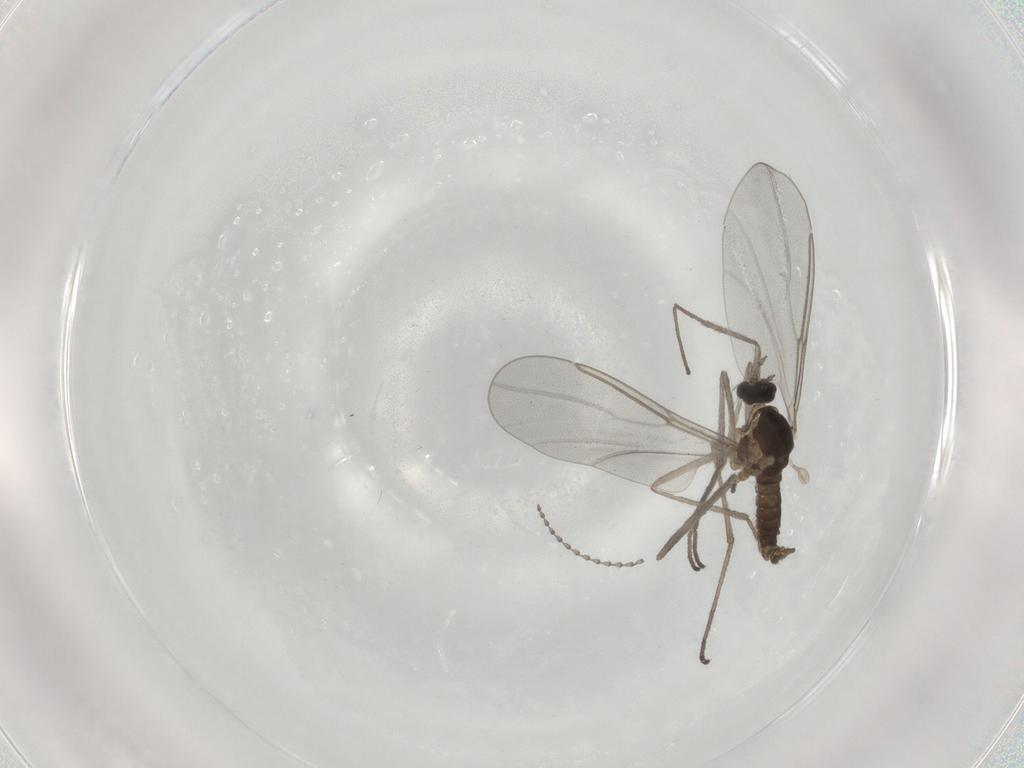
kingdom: Animalia
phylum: Arthropoda
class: Insecta
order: Diptera
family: Cecidomyiidae
